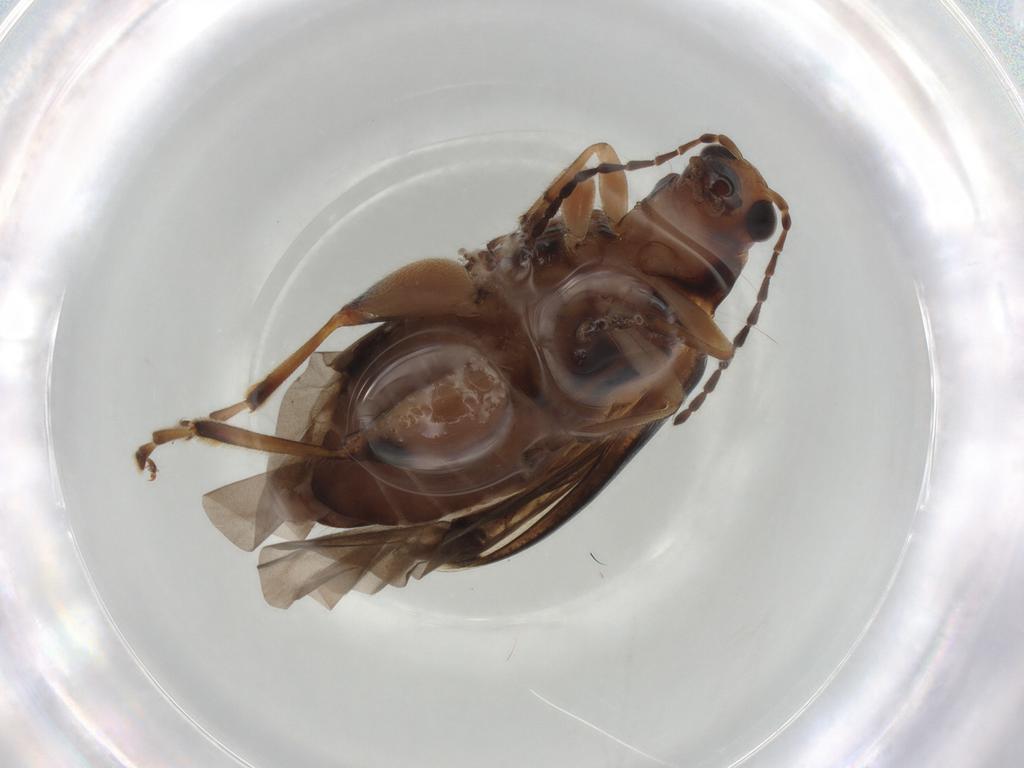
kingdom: Animalia
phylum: Arthropoda
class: Insecta
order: Coleoptera
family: Chrysomelidae
